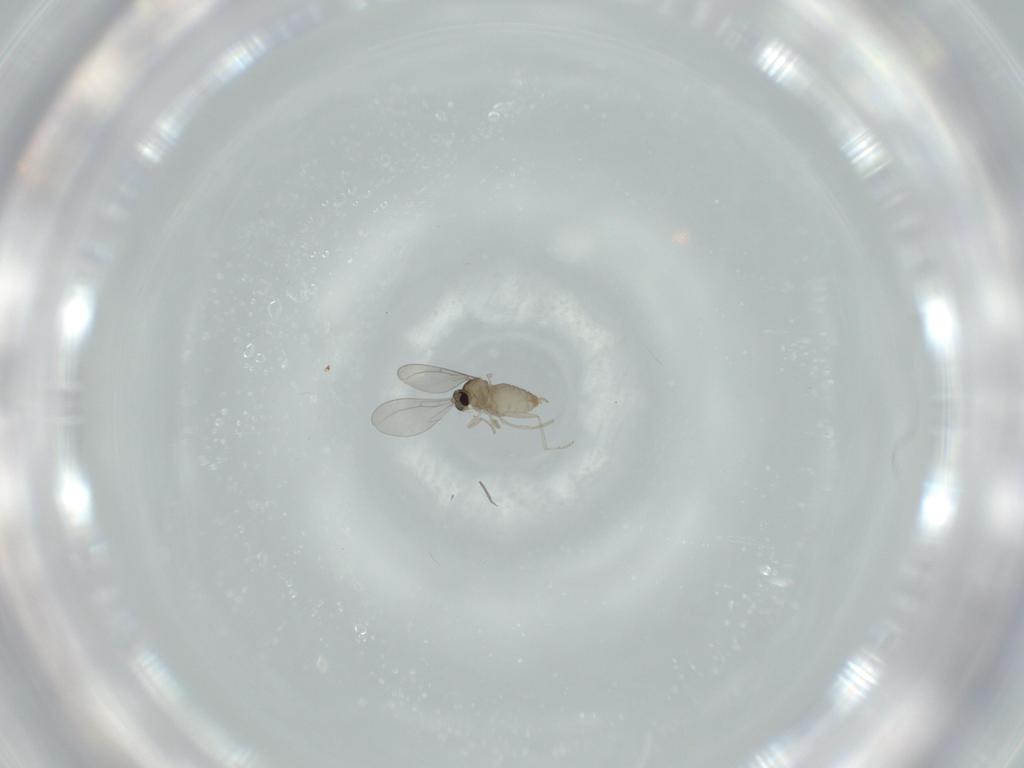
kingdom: Animalia
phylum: Arthropoda
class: Insecta
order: Diptera
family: Cecidomyiidae
